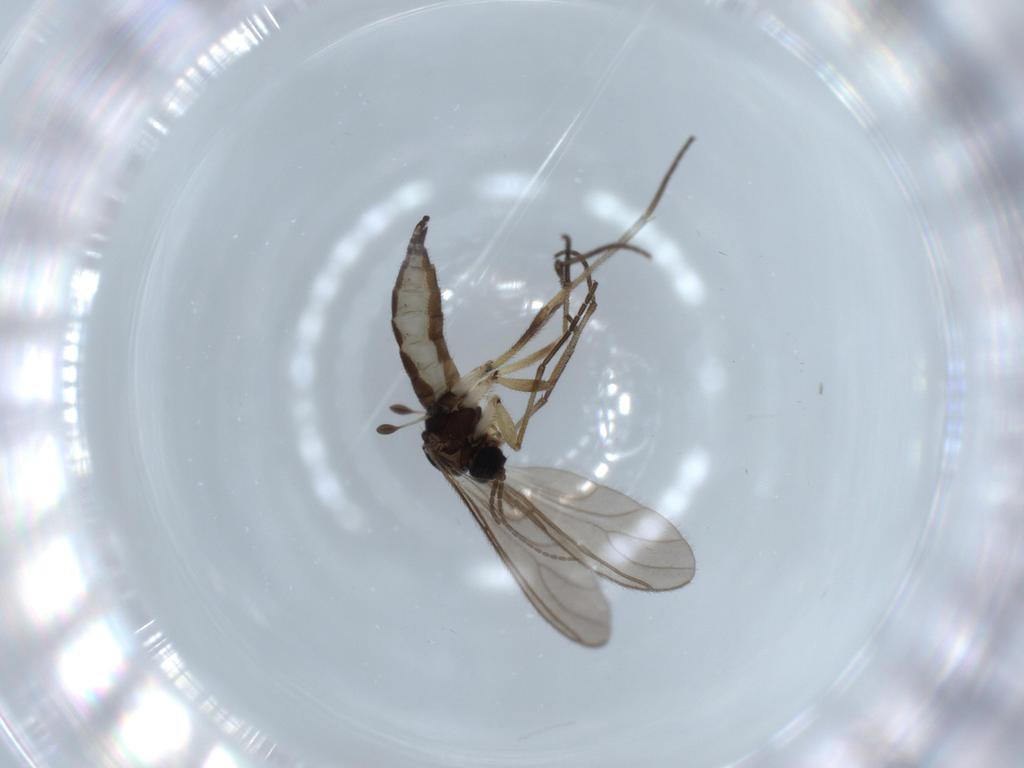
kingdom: Animalia
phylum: Arthropoda
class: Insecta
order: Diptera
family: Sciaridae
